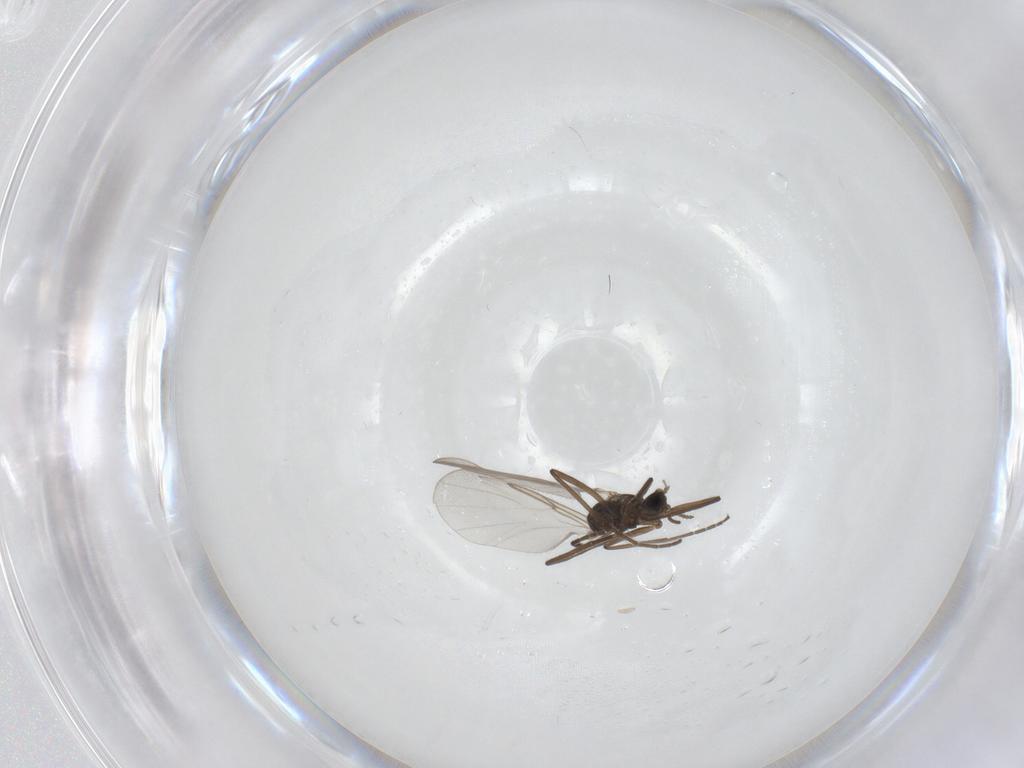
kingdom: Animalia
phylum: Arthropoda
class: Insecta
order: Diptera
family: Cecidomyiidae
